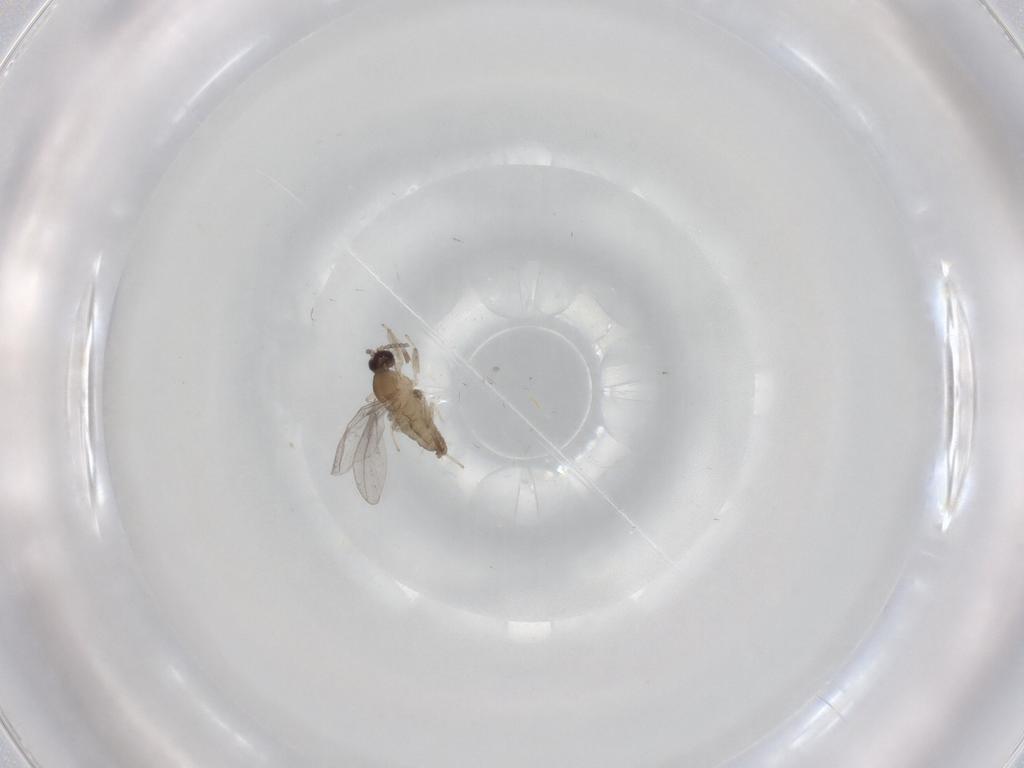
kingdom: Animalia
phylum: Arthropoda
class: Insecta
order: Diptera
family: Cecidomyiidae
